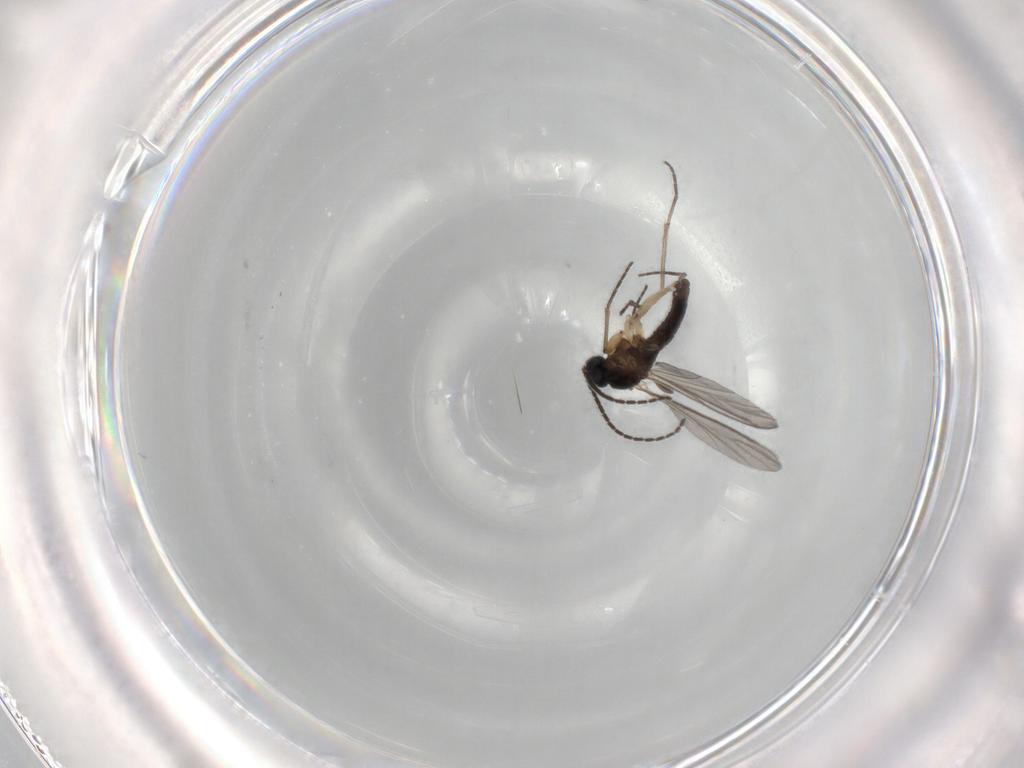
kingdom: Animalia
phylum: Arthropoda
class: Insecta
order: Diptera
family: Sciaridae
